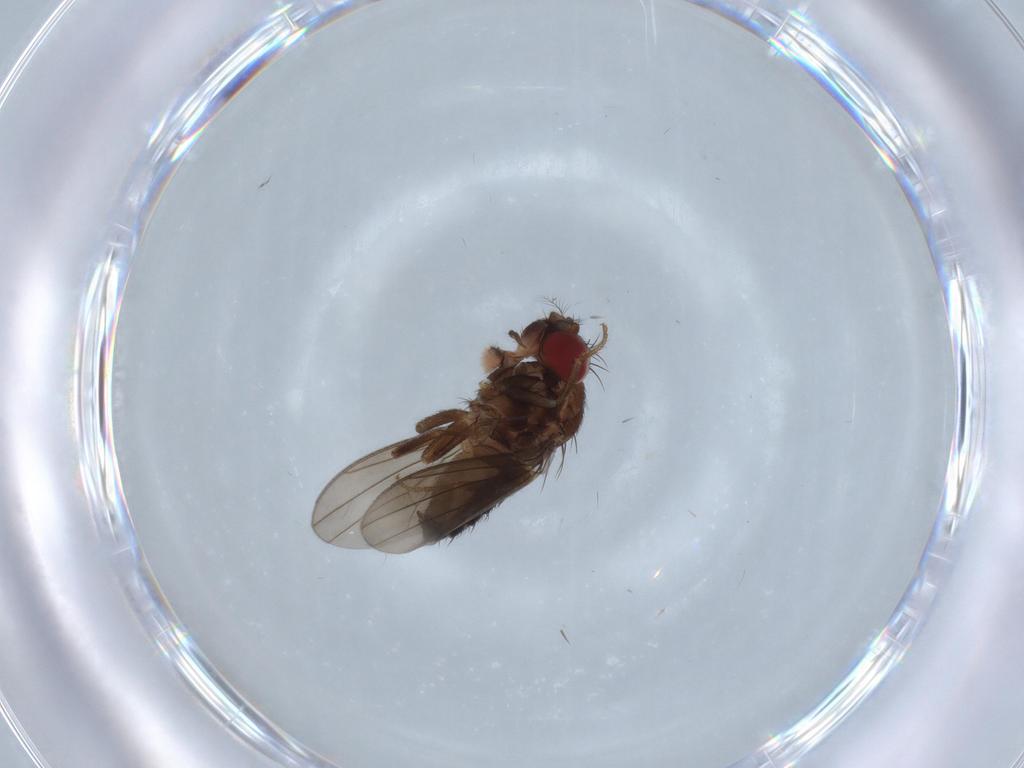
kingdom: Animalia
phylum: Arthropoda
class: Insecta
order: Diptera
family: Drosophilidae
